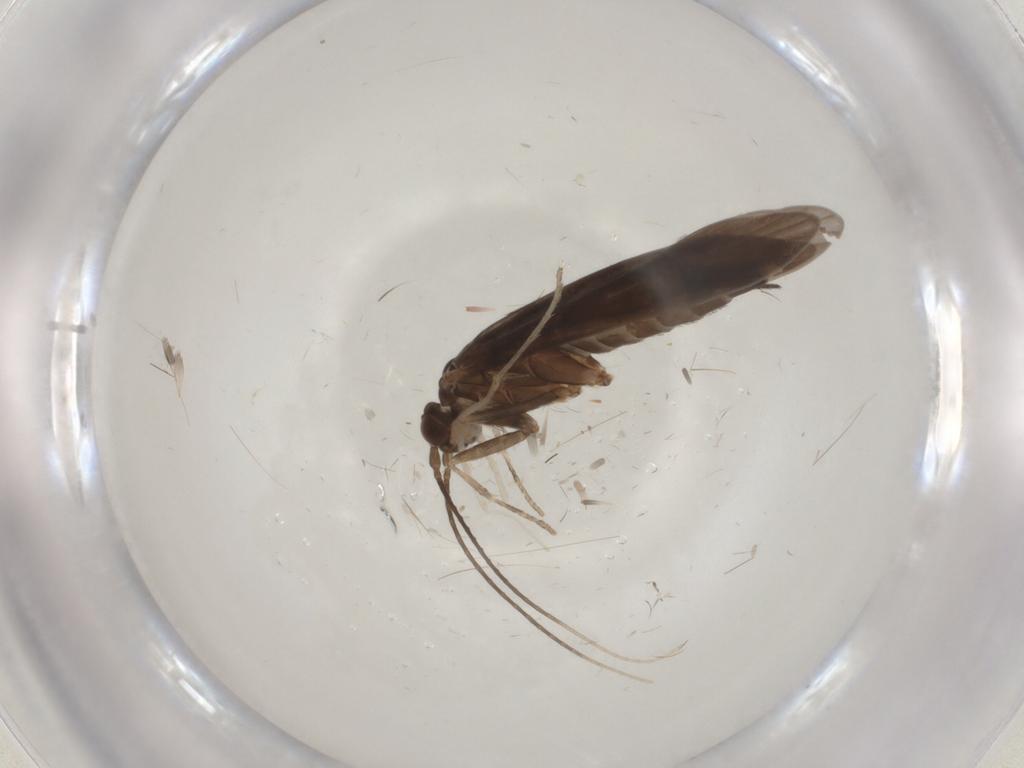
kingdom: Animalia
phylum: Arthropoda
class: Insecta
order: Trichoptera
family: Xiphocentronidae
